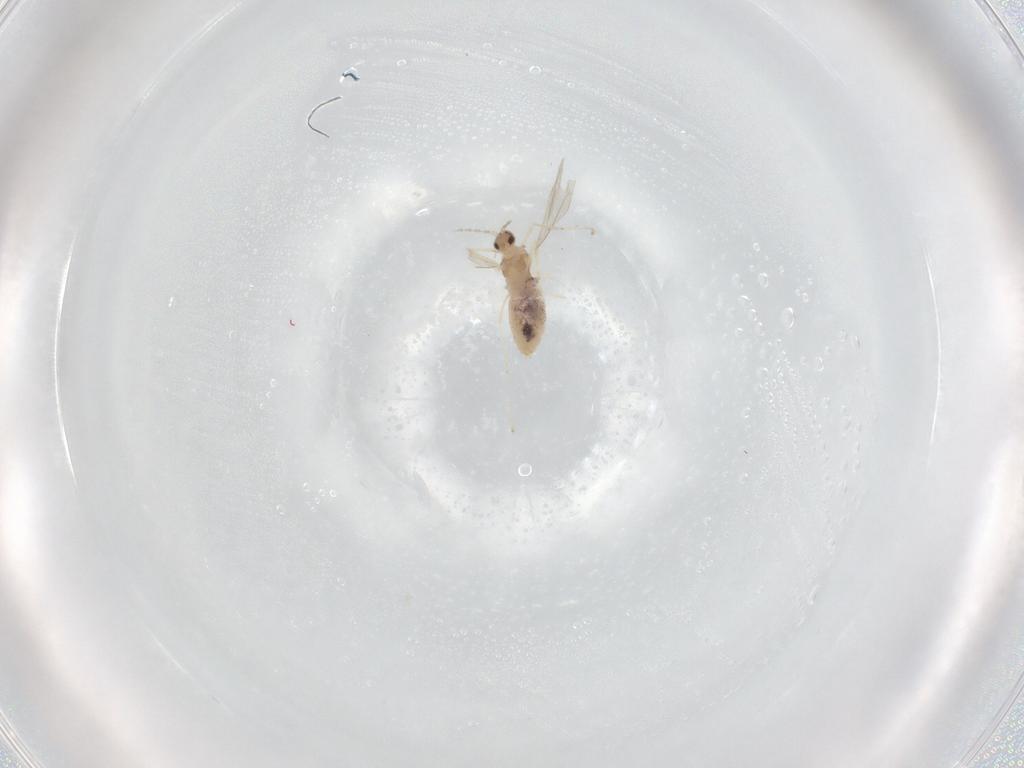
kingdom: Animalia
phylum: Arthropoda
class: Insecta
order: Diptera
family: Cecidomyiidae
